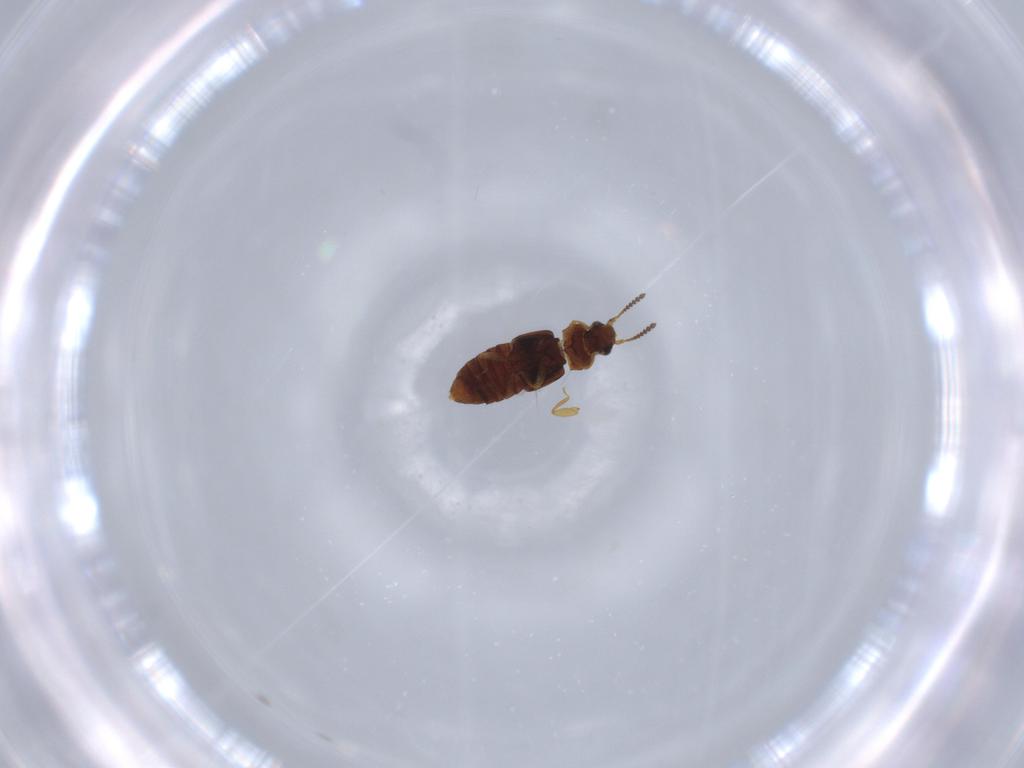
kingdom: Animalia
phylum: Arthropoda
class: Insecta
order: Coleoptera
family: Staphylinidae
